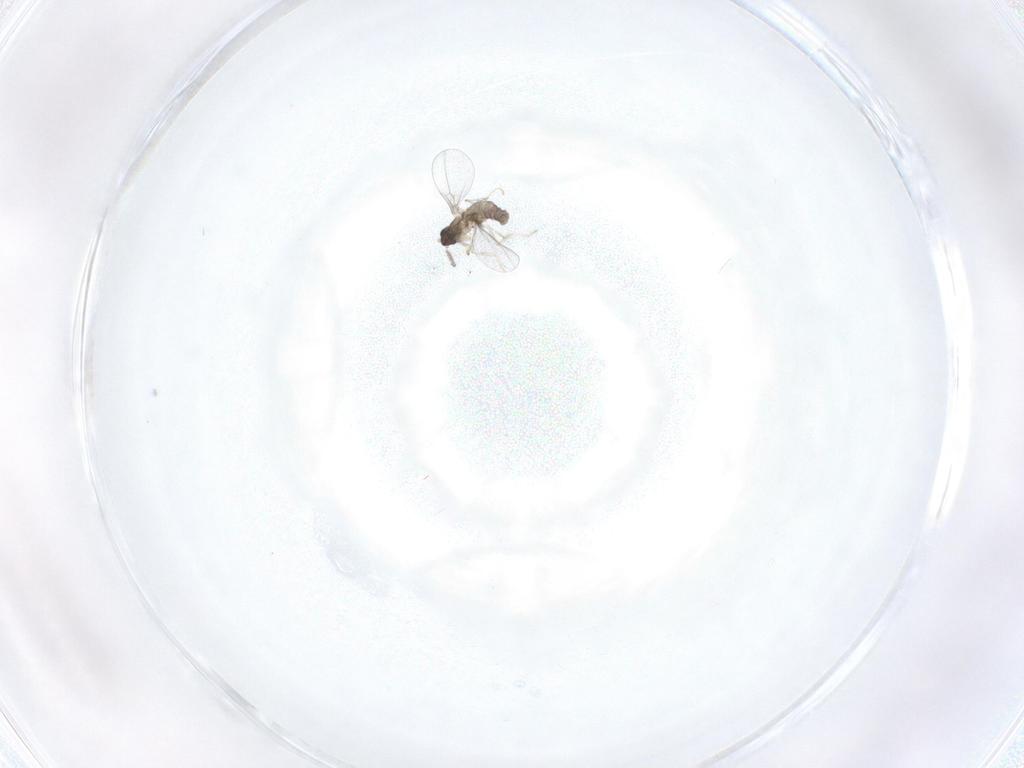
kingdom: Animalia
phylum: Arthropoda
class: Insecta
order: Diptera
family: Cecidomyiidae
